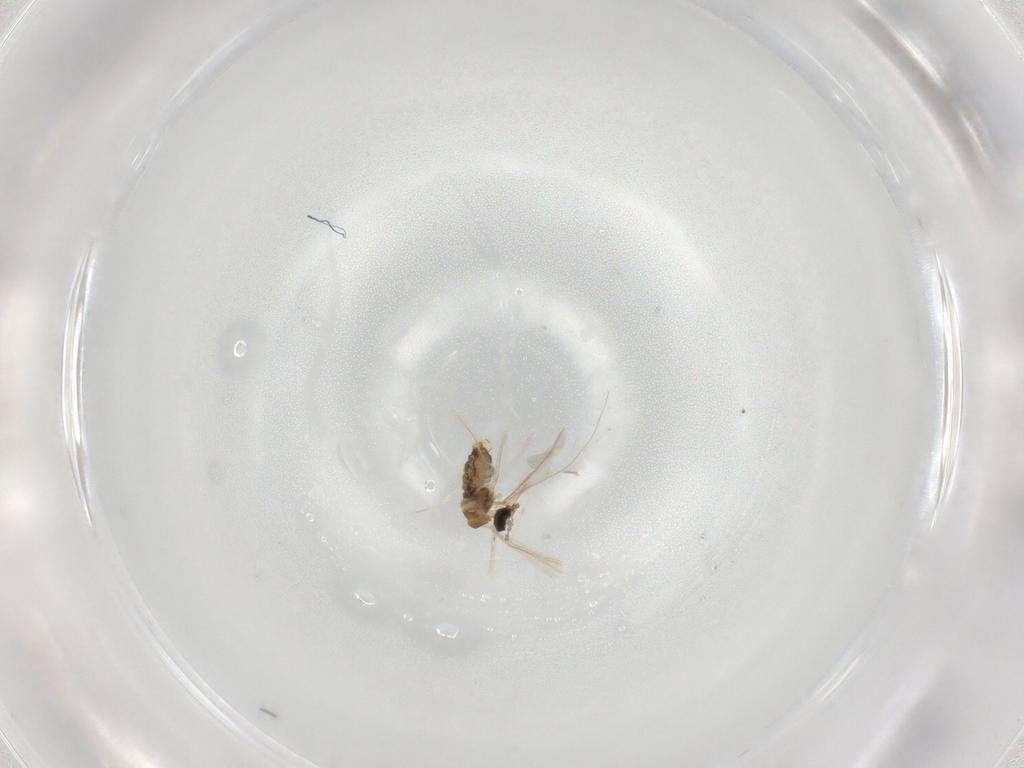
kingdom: Animalia
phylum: Arthropoda
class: Insecta
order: Diptera
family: Cecidomyiidae
